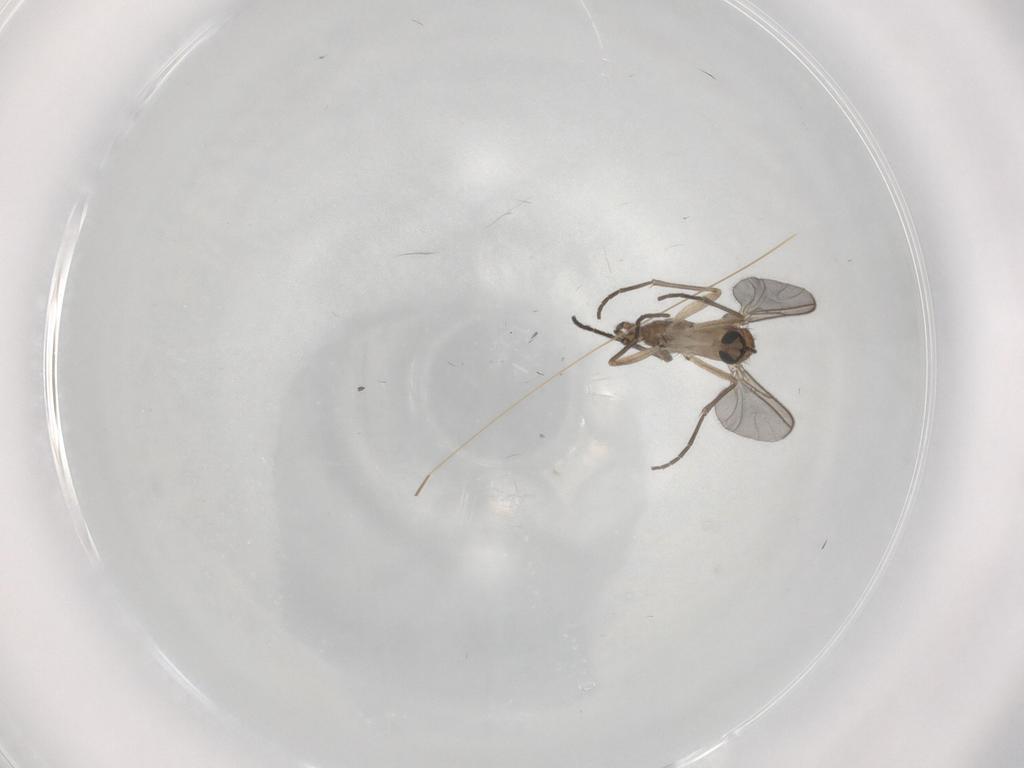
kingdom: Animalia
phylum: Arthropoda
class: Insecta
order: Diptera
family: Sciaridae
